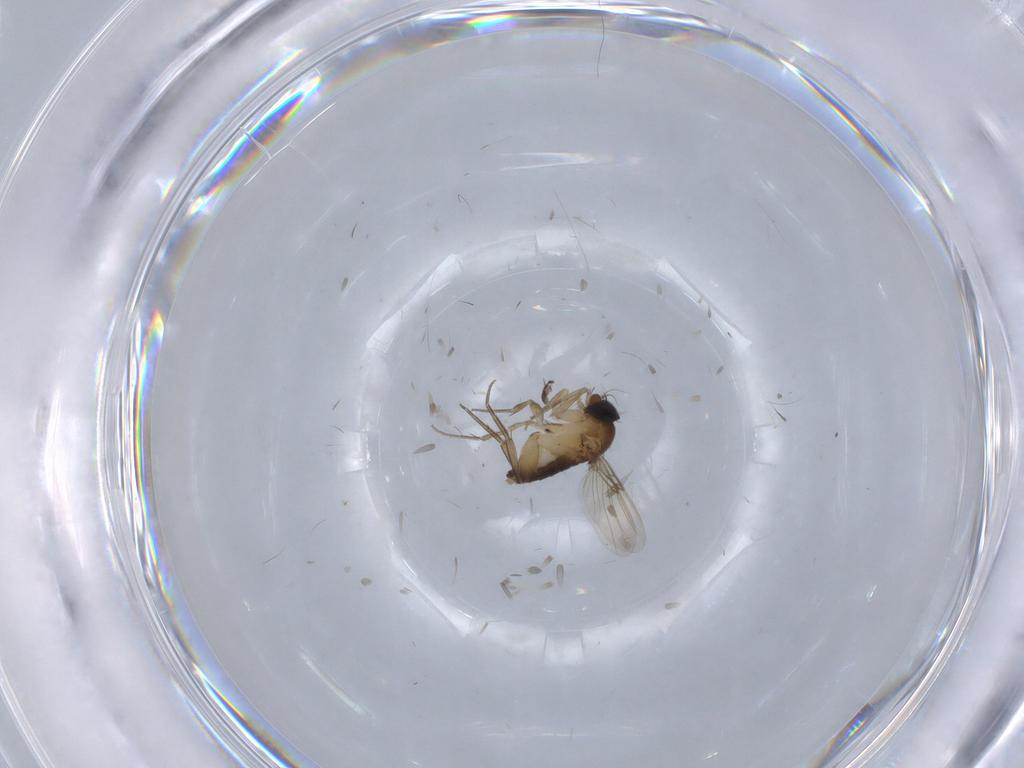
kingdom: Animalia
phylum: Arthropoda
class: Insecta
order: Diptera
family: Phoridae
